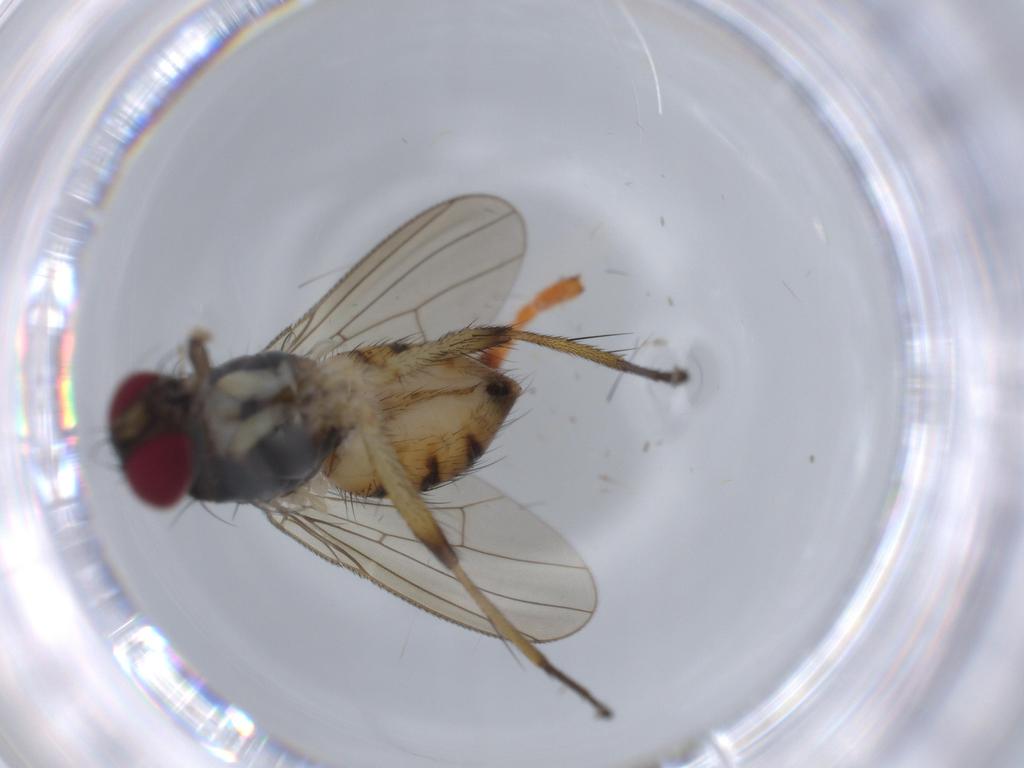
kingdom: Animalia
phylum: Arthropoda
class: Insecta
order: Diptera
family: Muscidae
